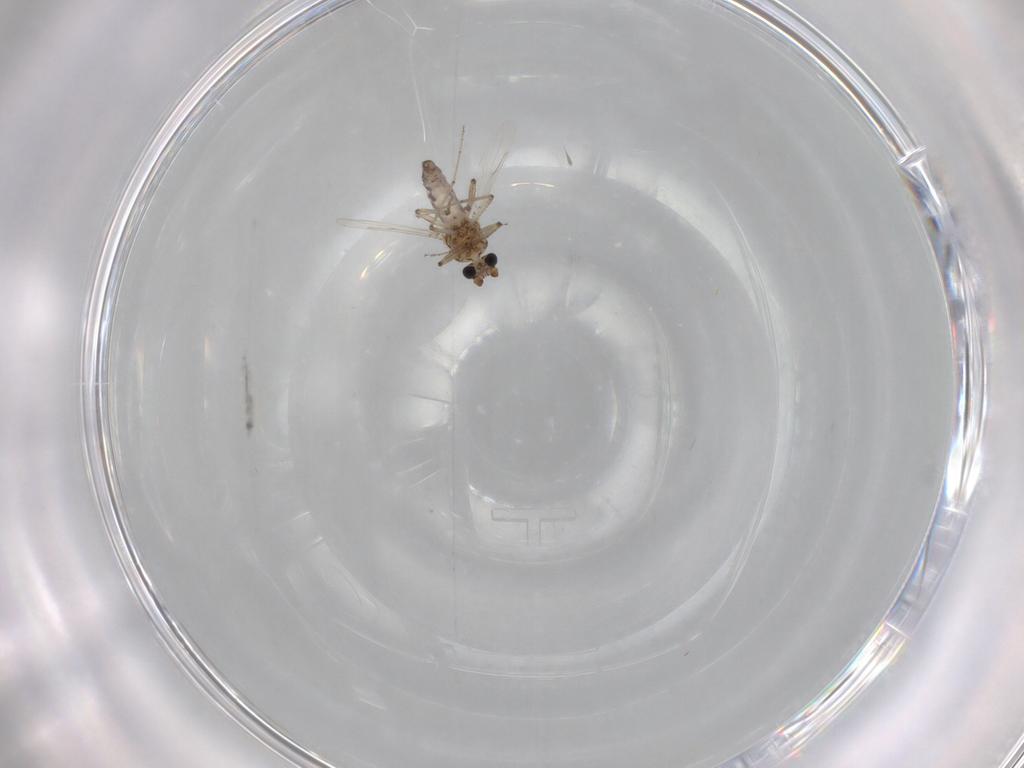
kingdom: Animalia
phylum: Arthropoda
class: Insecta
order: Diptera
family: Ceratopogonidae
